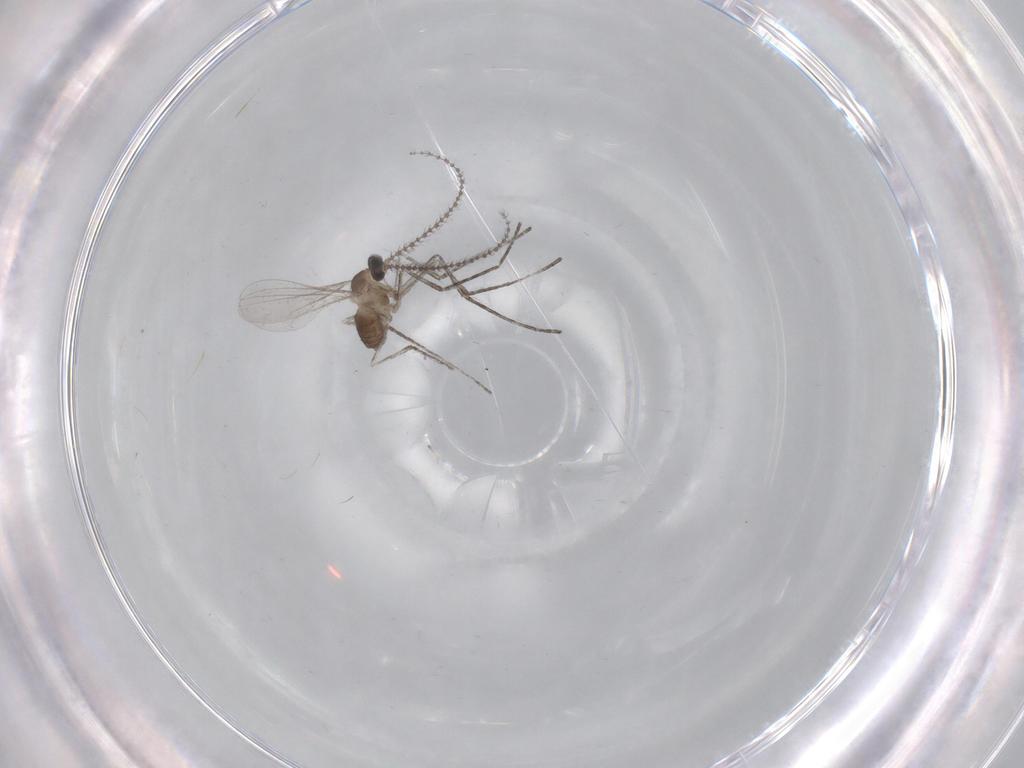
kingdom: Animalia
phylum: Arthropoda
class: Insecta
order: Diptera
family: Cecidomyiidae
